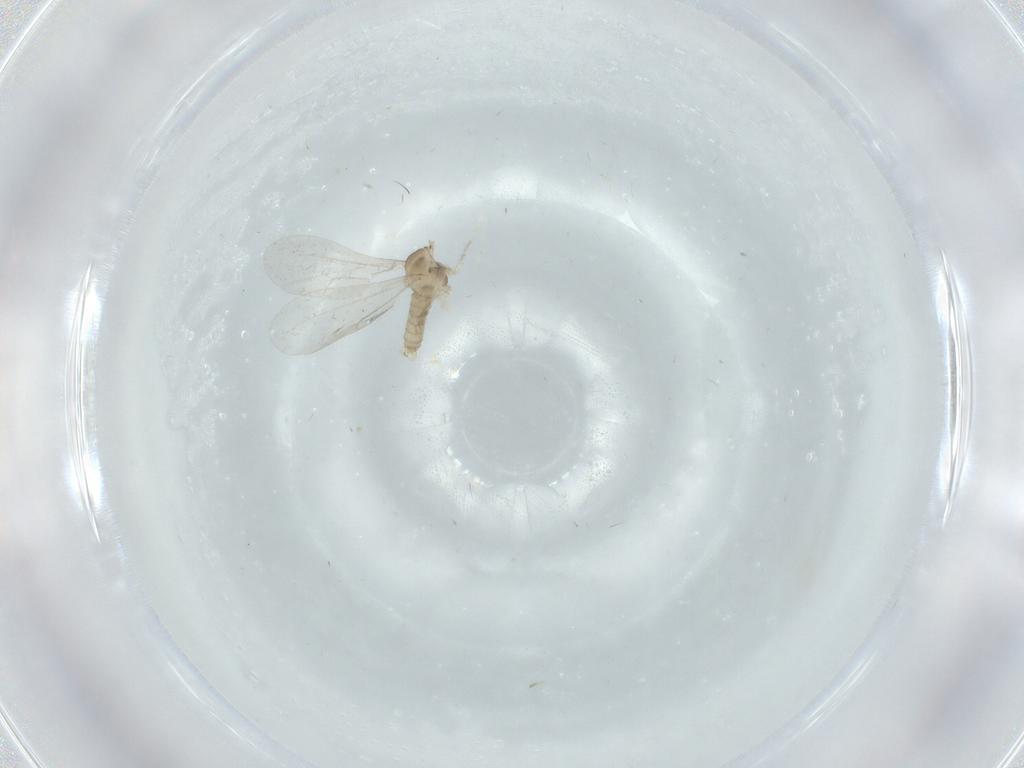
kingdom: Animalia
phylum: Arthropoda
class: Insecta
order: Diptera
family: Cecidomyiidae
